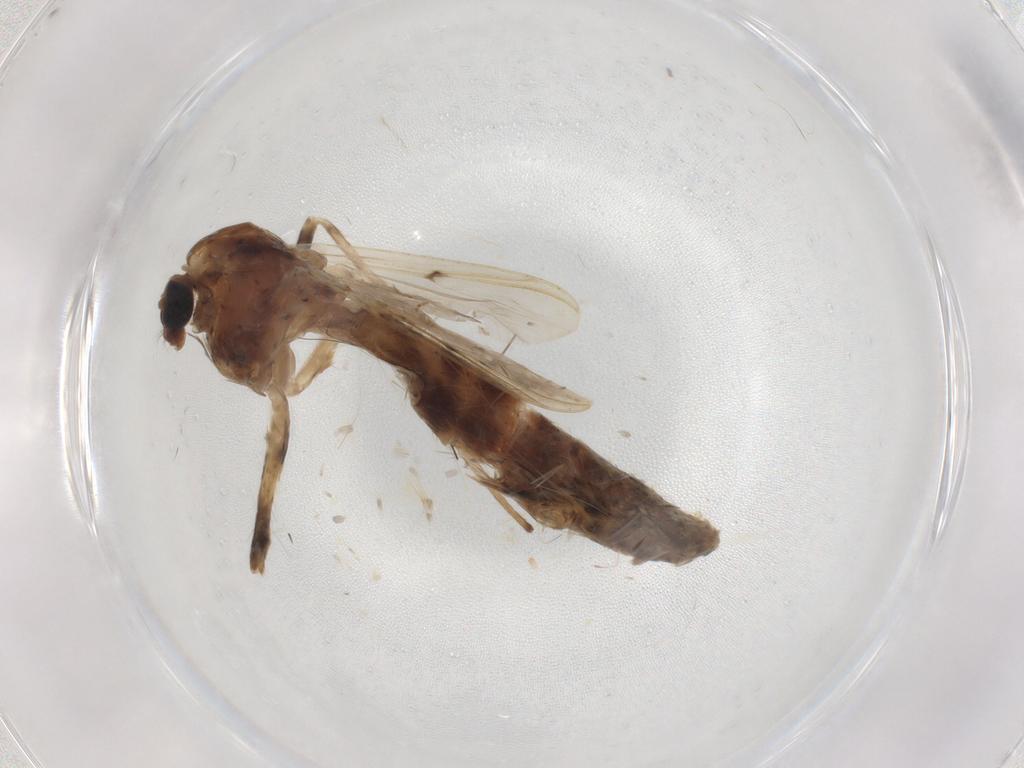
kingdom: Animalia
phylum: Arthropoda
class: Insecta
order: Diptera
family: Chironomidae
